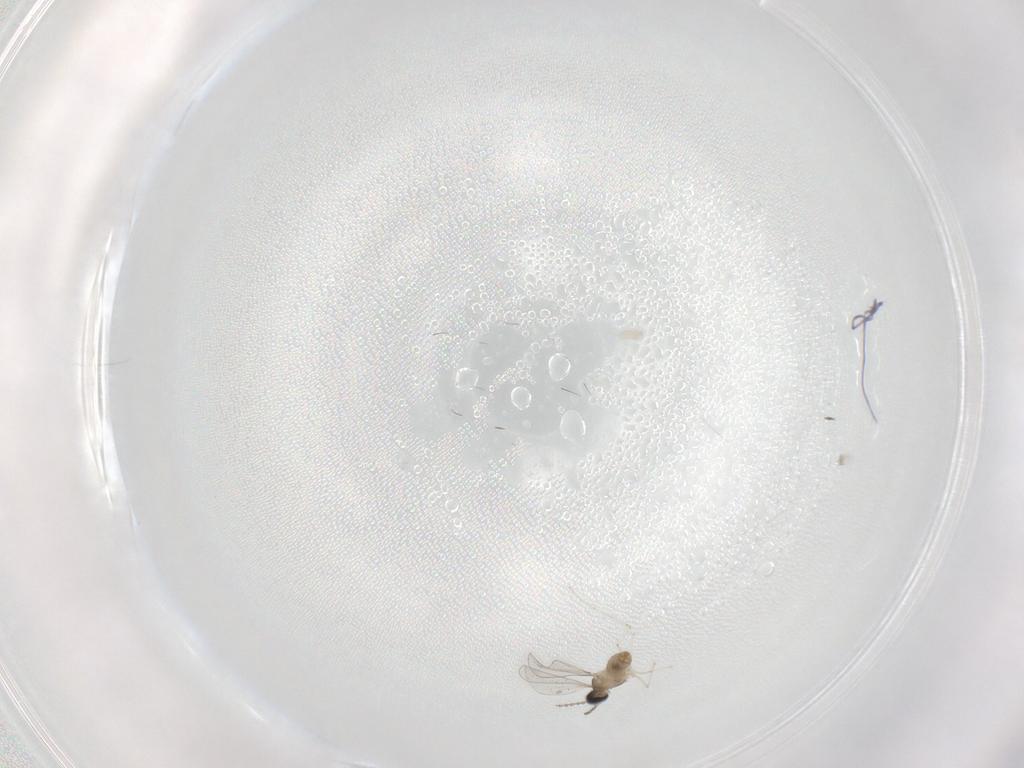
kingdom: Animalia
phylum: Arthropoda
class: Insecta
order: Diptera
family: Cecidomyiidae
